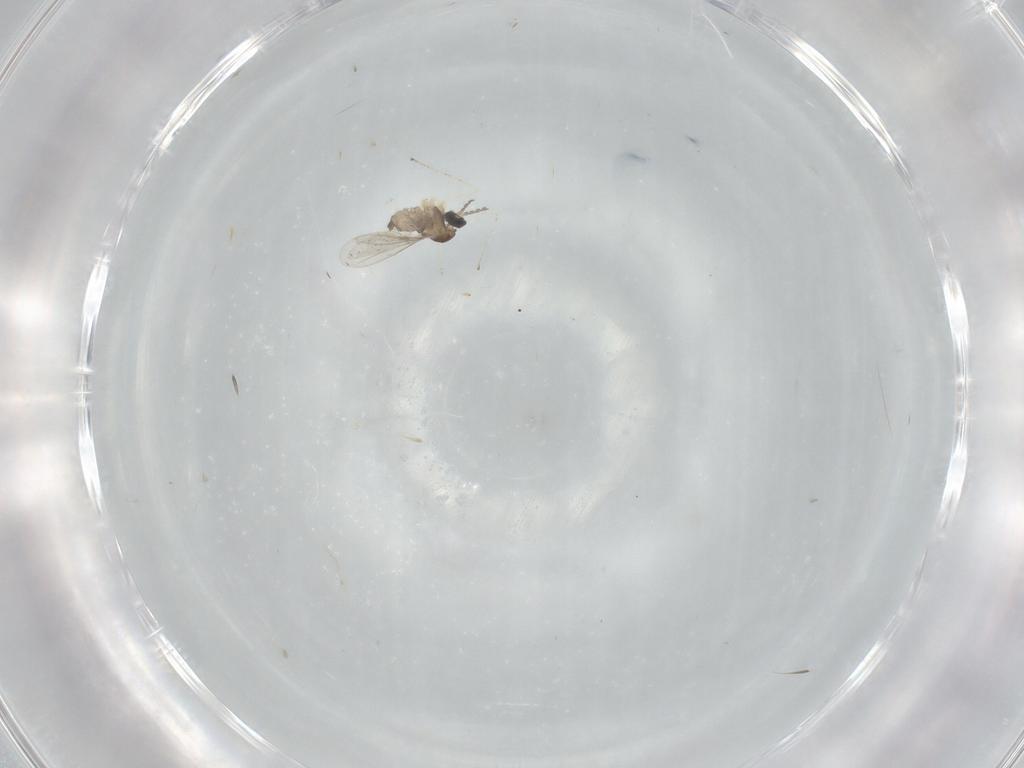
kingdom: Animalia
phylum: Arthropoda
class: Insecta
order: Diptera
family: Cecidomyiidae
